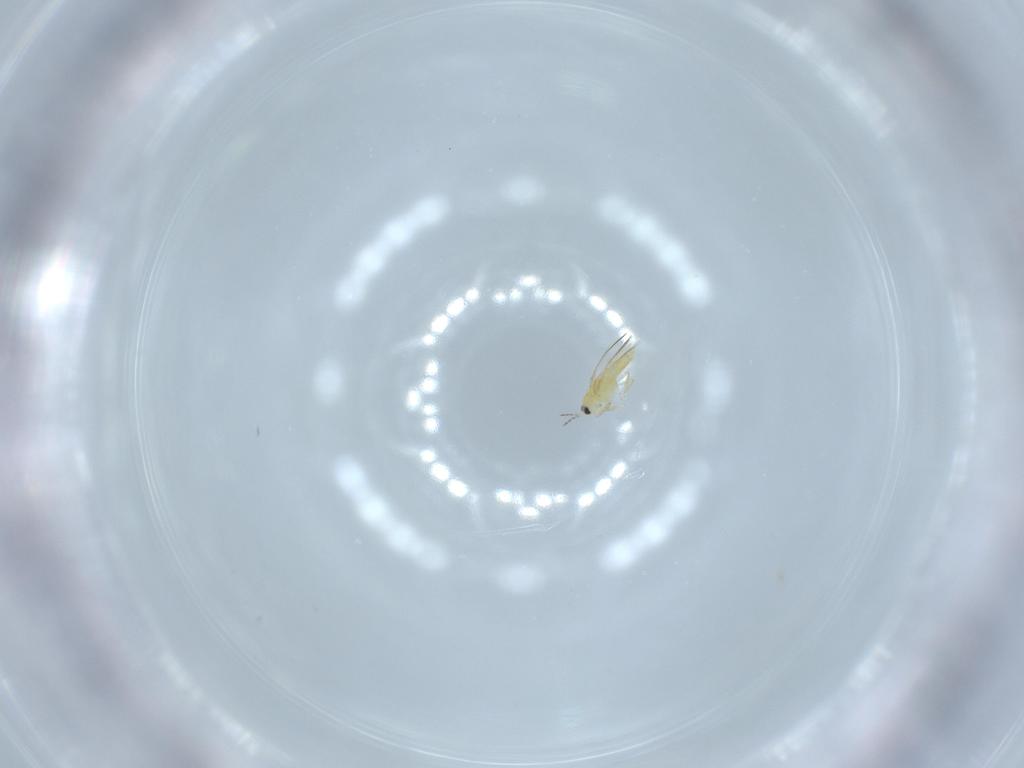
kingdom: Animalia
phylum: Arthropoda
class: Insecta
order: Thysanoptera
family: Thripidae
